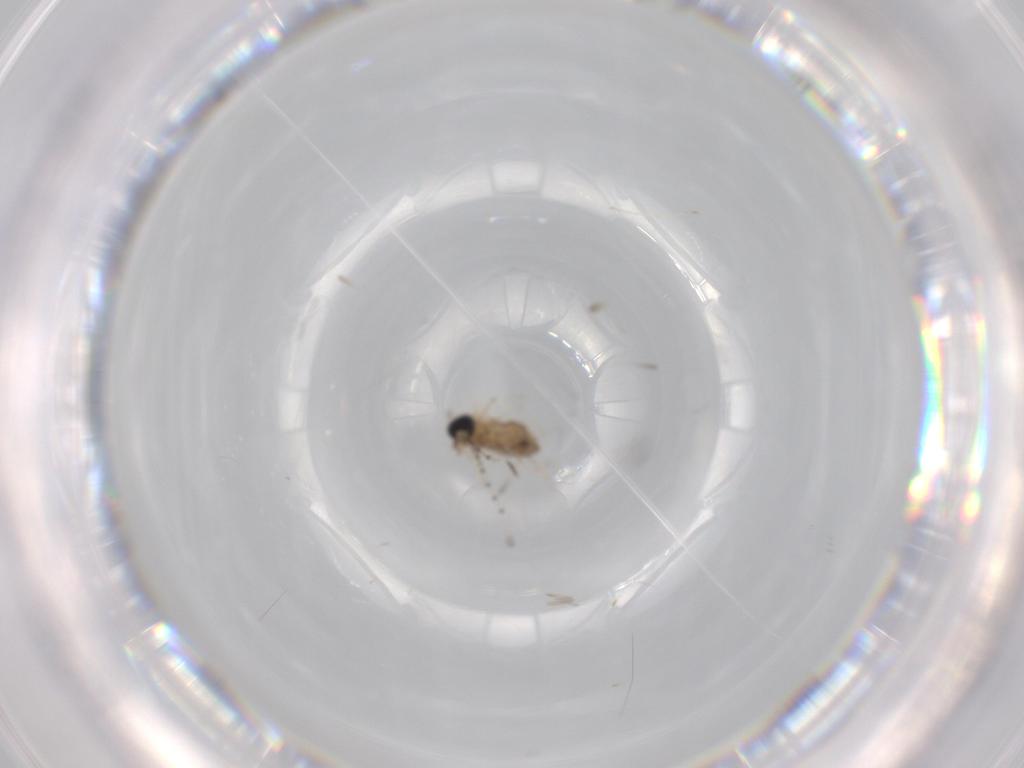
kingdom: Animalia
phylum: Arthropoda
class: Insecta
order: Diptera
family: Cecidomyiidae
